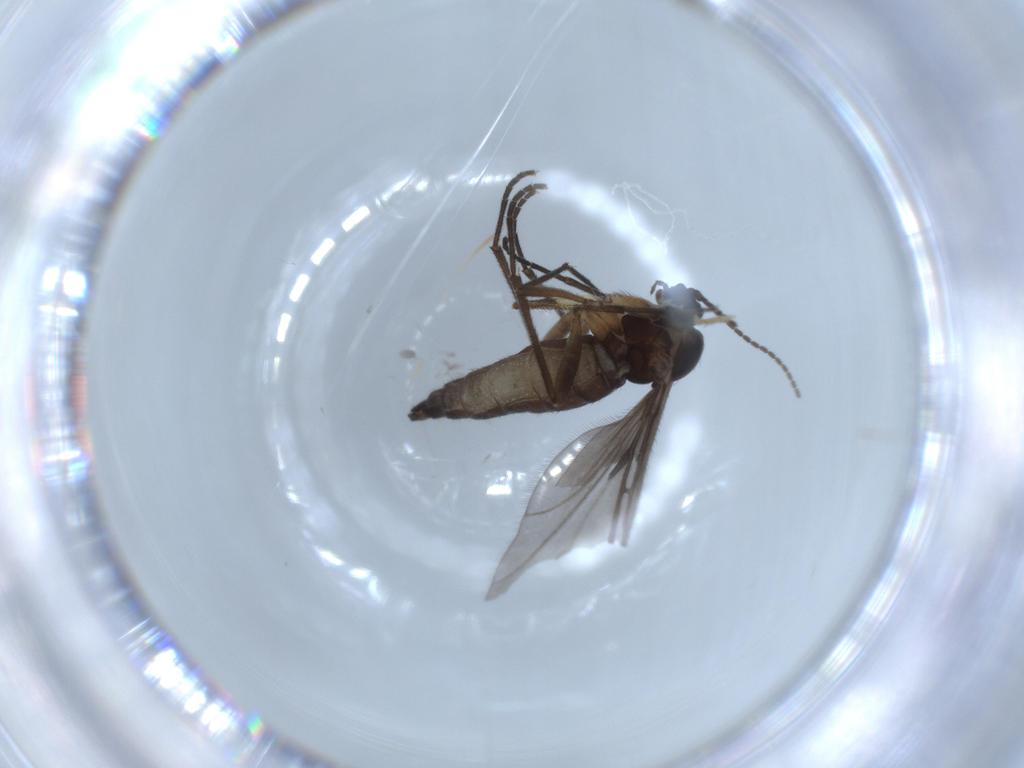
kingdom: Animalia
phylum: Arthropoda
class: Insecta
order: Diptera
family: Sciaridae
